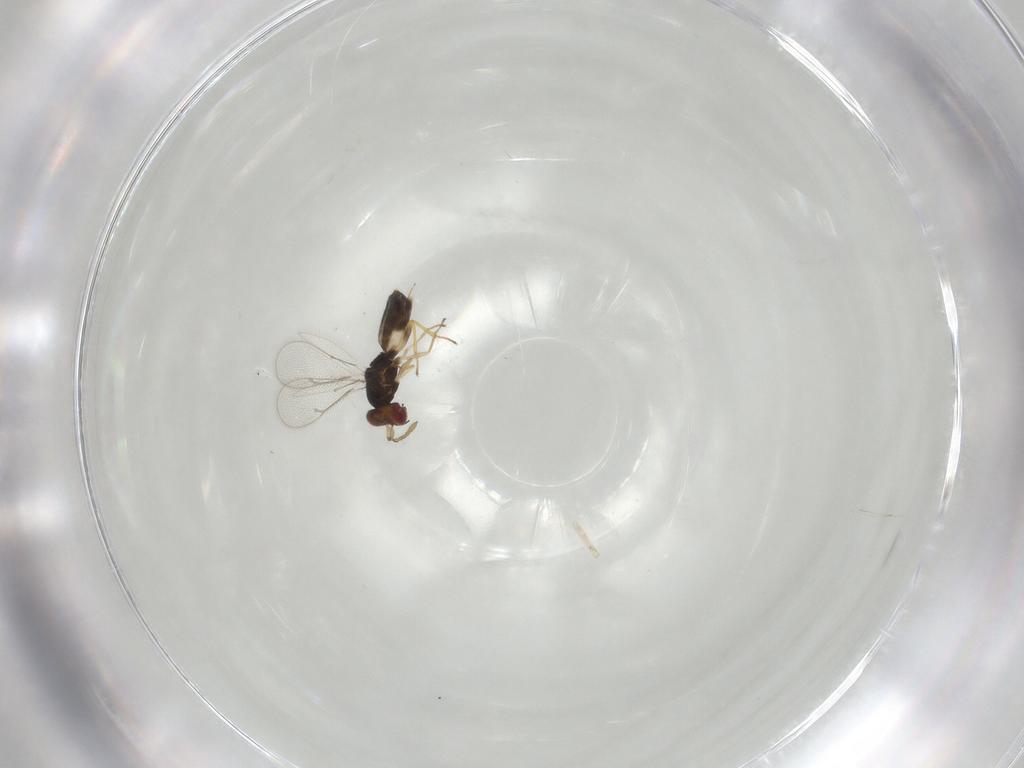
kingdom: Animalia
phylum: Arthropoda
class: Insecta
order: Hymenoptera
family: Eulophidae
